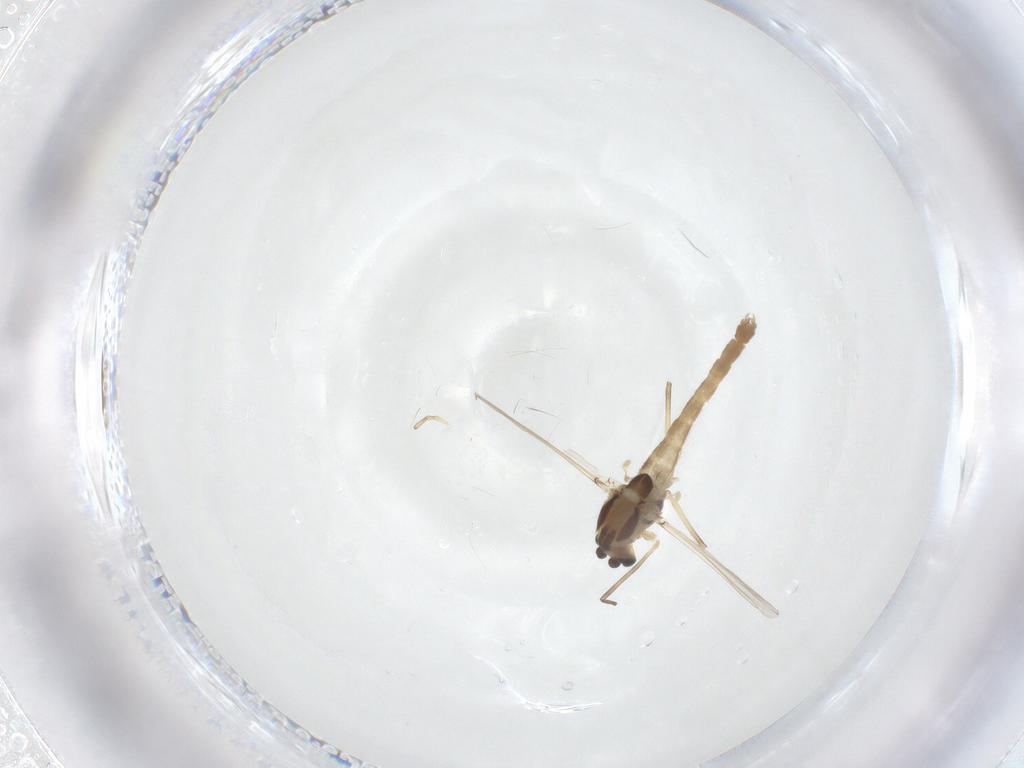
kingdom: Animalia
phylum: Arthropoda
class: Insecta
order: Diptera
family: Chironomidae
